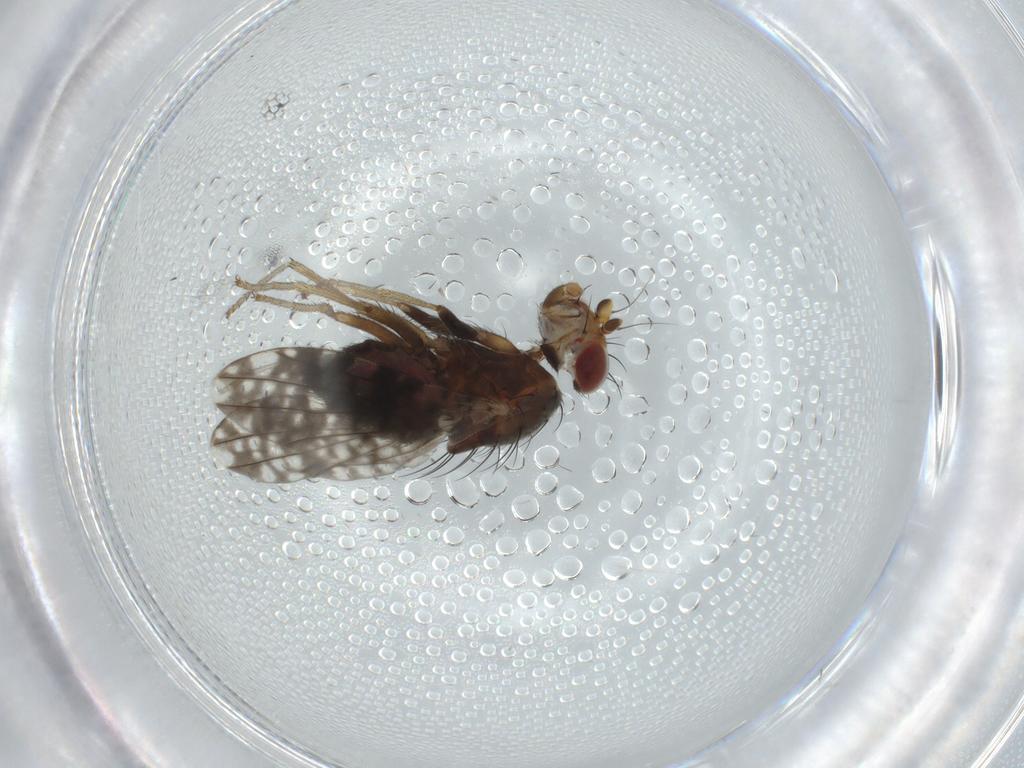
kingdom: Animalia
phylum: Arthropoda
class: Insecta
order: Diptera
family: Tephritidae
